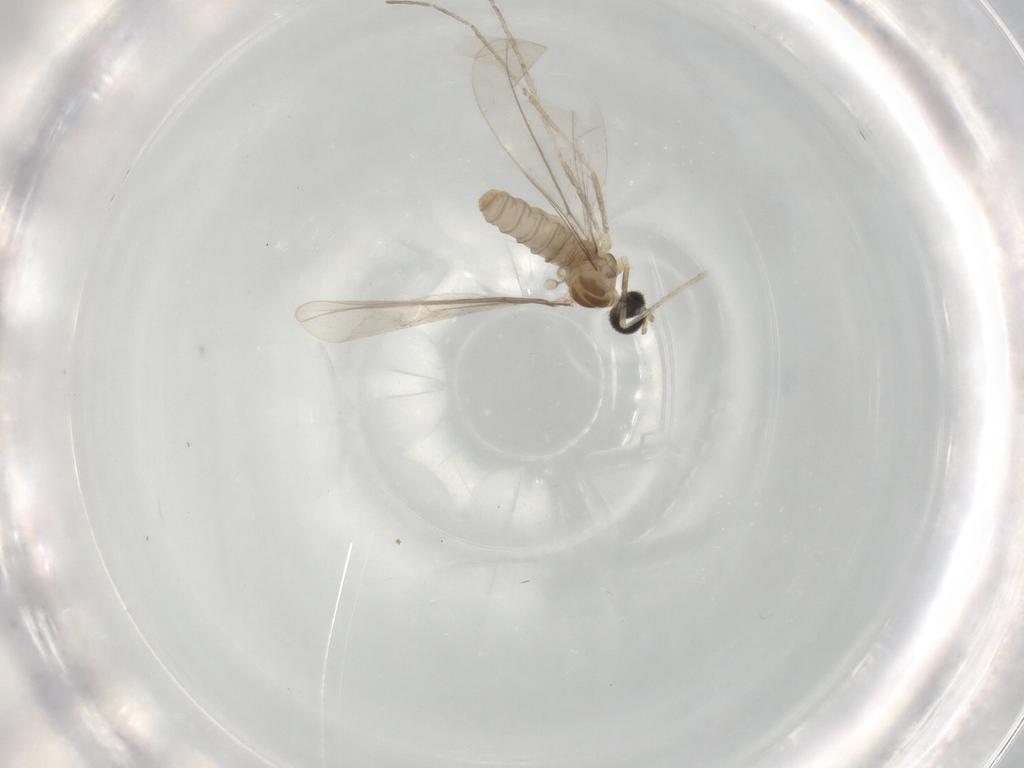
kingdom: Animalia
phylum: Arthropoda
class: Insecta
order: Diptera
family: Cecidomyiidae
